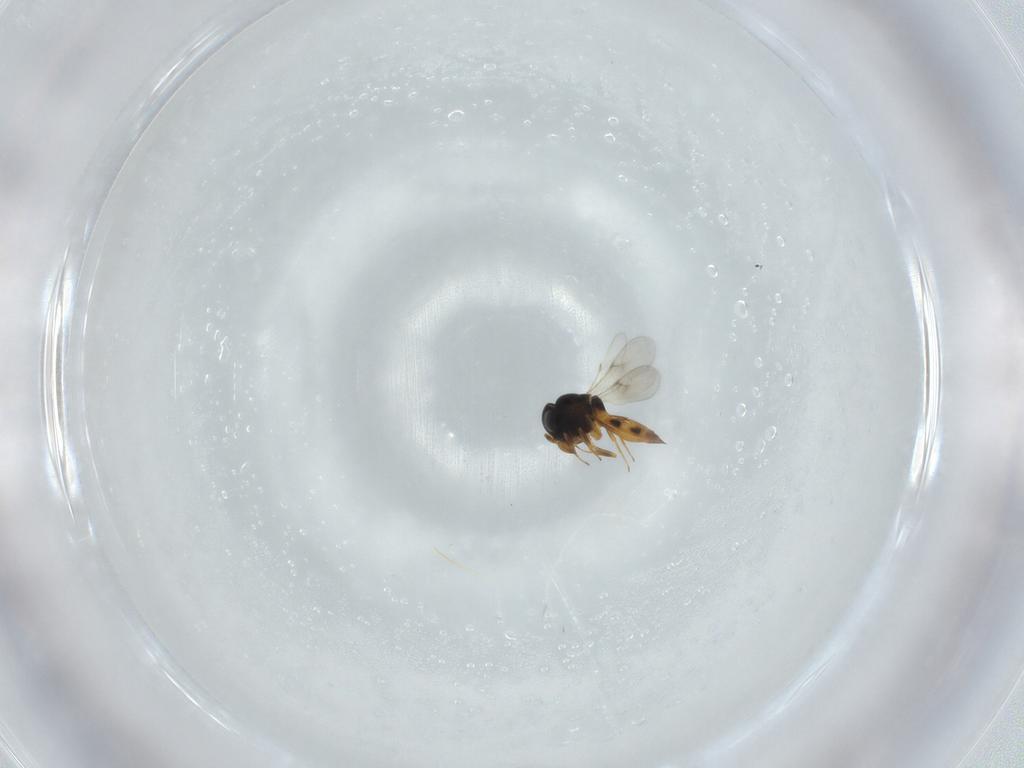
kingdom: Animalia
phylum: Arthropoda
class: Arachnida
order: Araneae
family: Pholcidae
